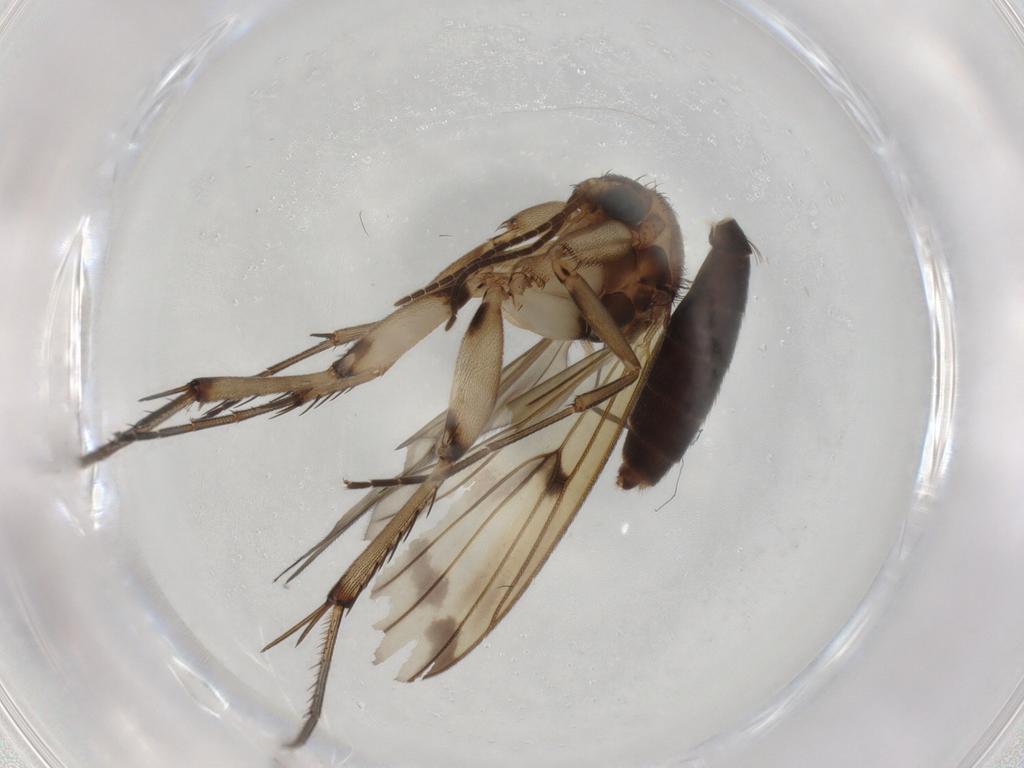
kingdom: Animalia
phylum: Arthropoda
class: Insecta
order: Diptera
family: Mycetophilidae
